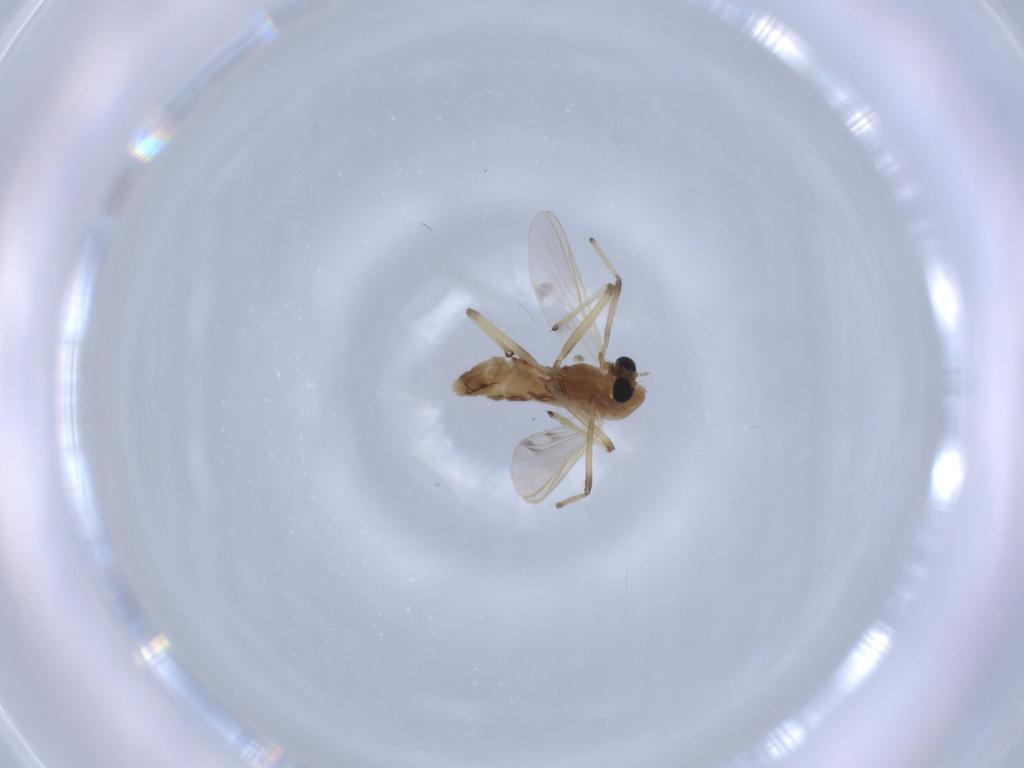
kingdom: Animalia
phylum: Arthropoda
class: Insecta
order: Diptera
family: Chironomidae
